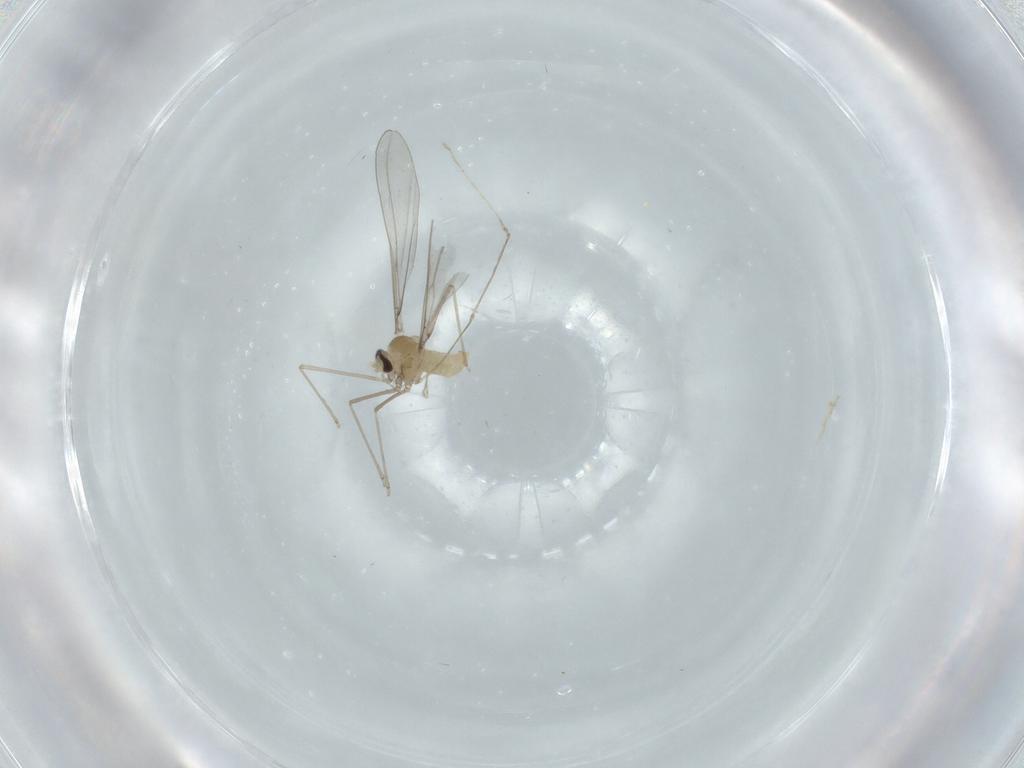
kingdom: Animalia
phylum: Arthropoda
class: Insecta
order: Diptera
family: Cecidomyiidae
